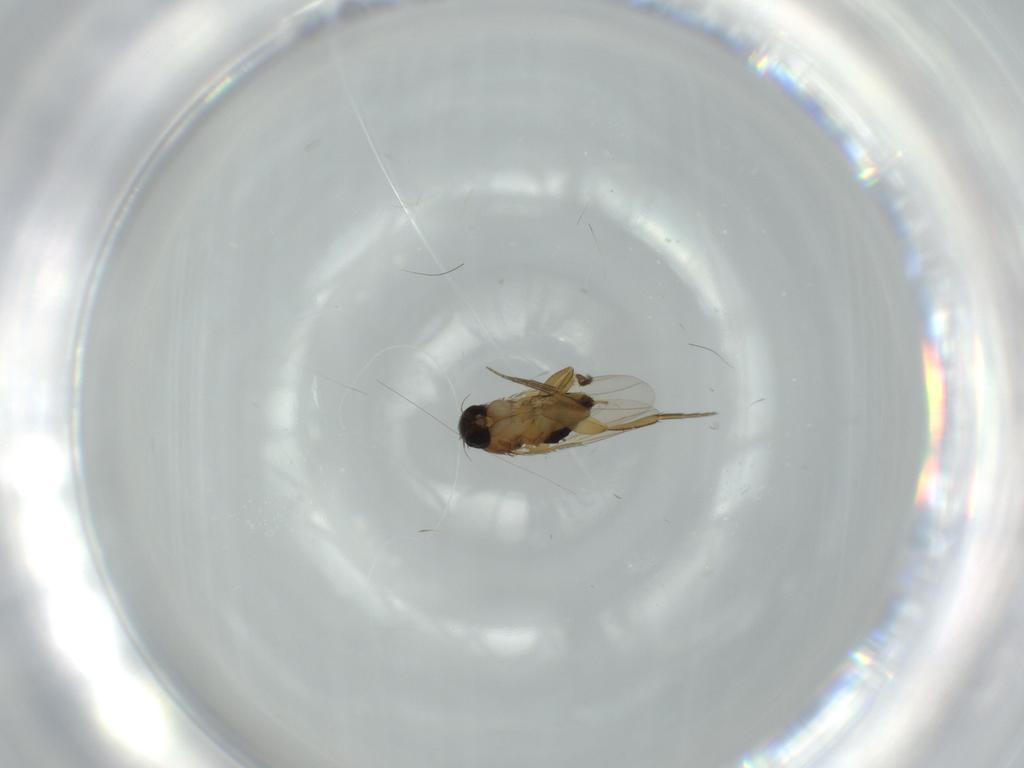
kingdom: Animalia
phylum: Arthropoda
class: Insecta
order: Diptera
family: Phoridae
